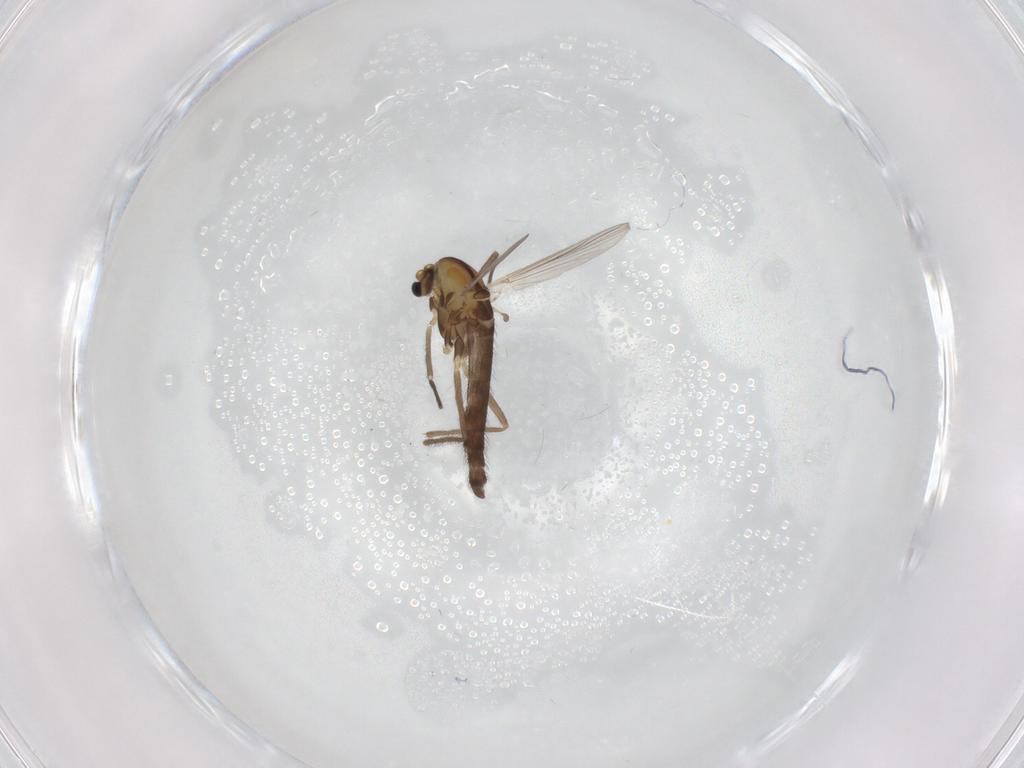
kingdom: Animalia
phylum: Arthropoda
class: Insecta
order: Diptera
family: Chironomidae
